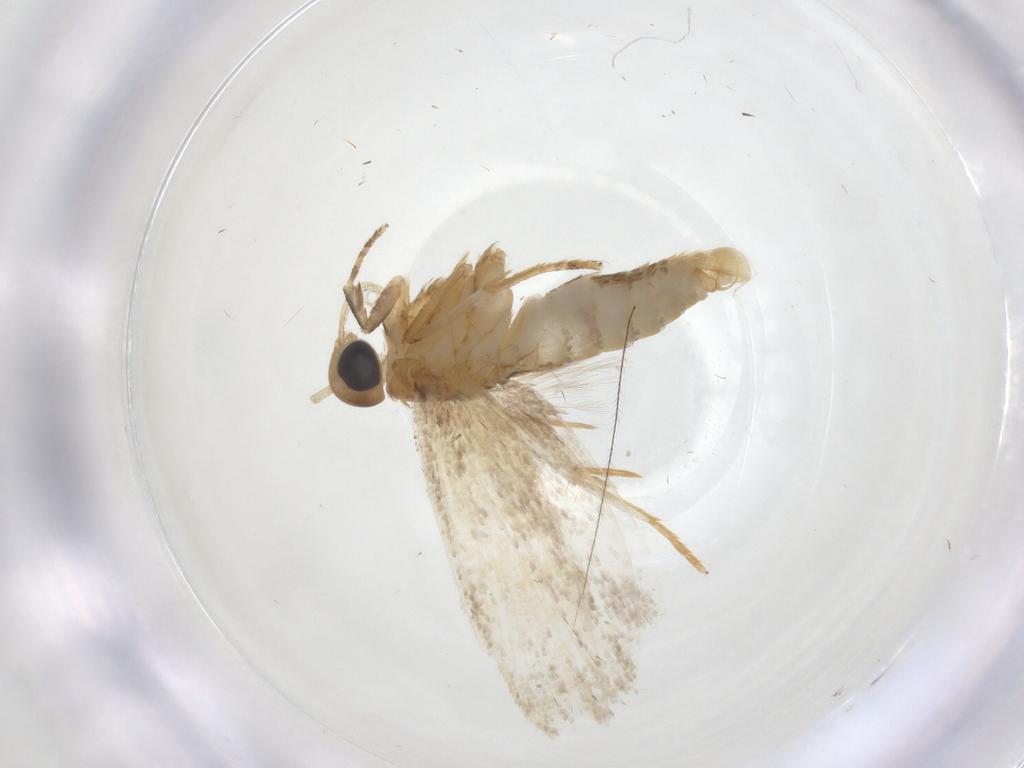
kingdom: Animalia
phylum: Arthropoda
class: Insecta
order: Lepidoptera
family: Oecophoridae
